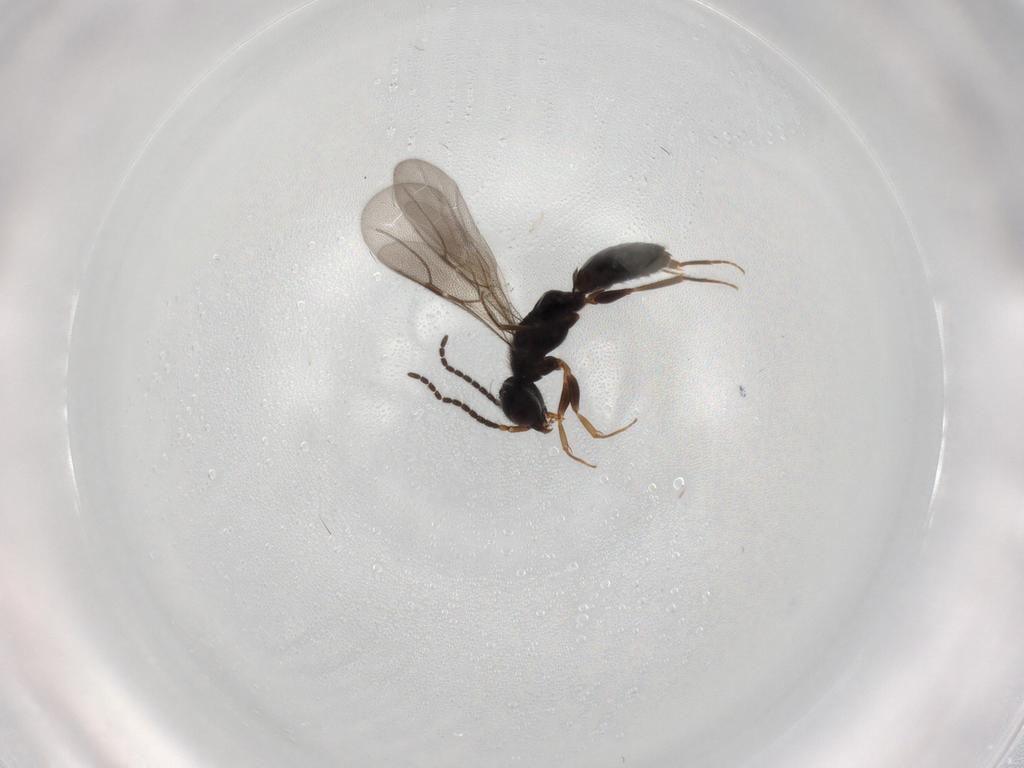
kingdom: Animalia
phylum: Arthropoda
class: Insecta
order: Hymenoptera
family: Bethylidae
